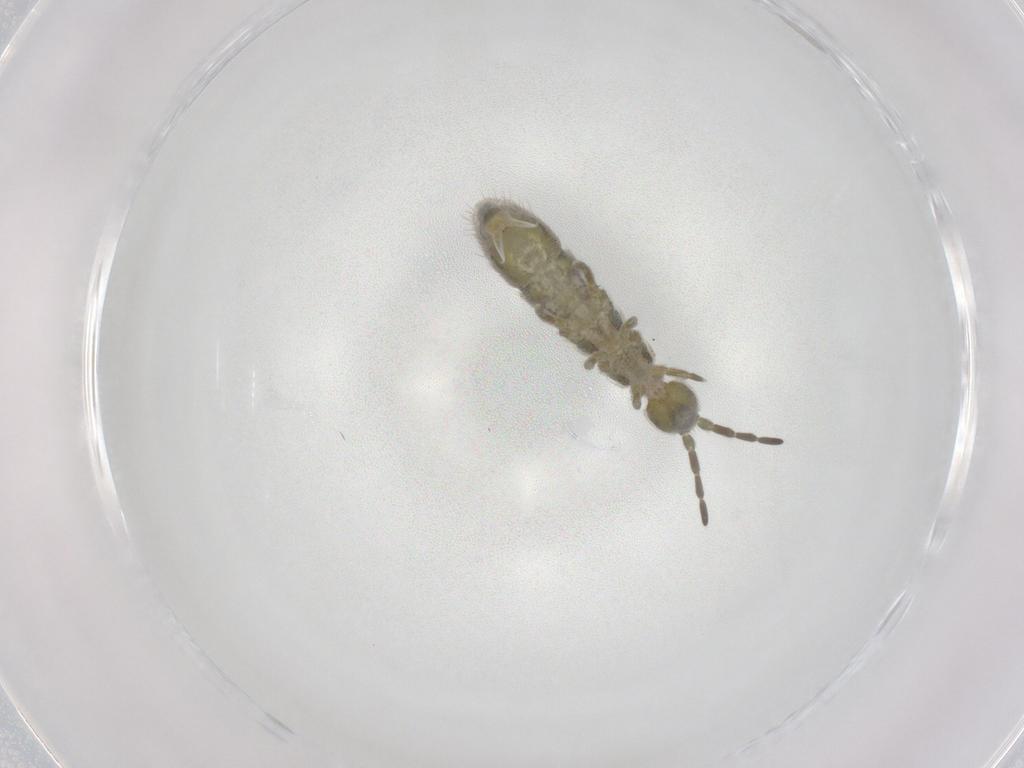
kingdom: Animalia
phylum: Arthropoda
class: Collembola
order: Entomobryomorpha
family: Isotomidae
